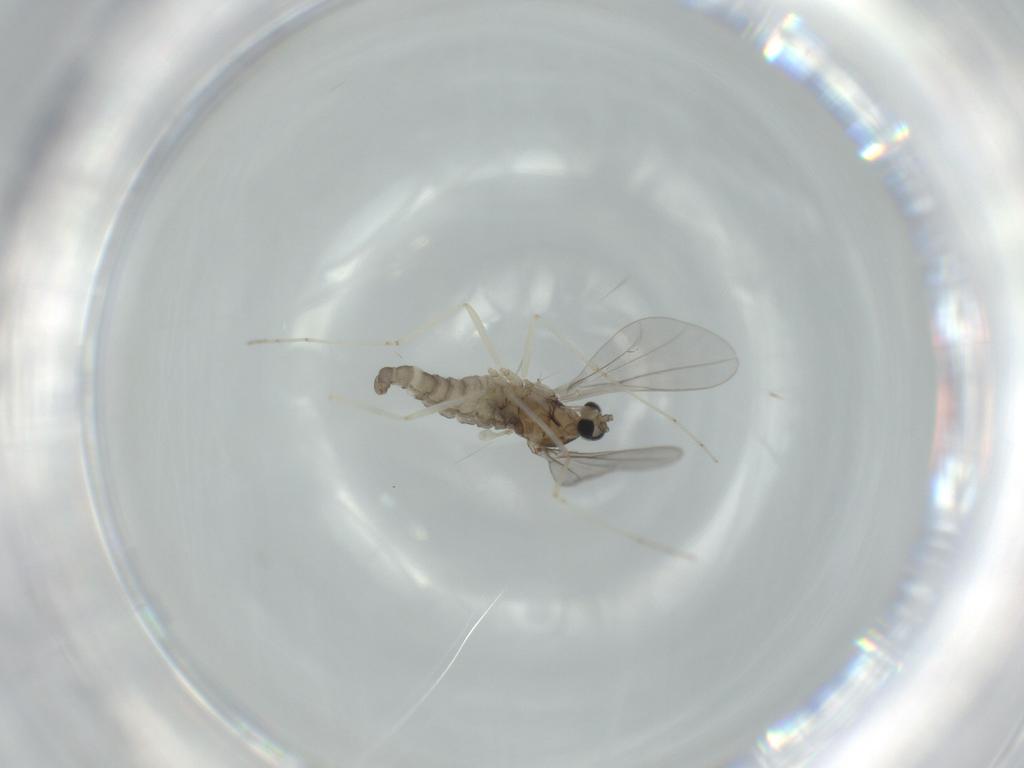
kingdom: Animalia
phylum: Arthropoda
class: Insecta
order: Diptera
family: Cecidomyiidae
